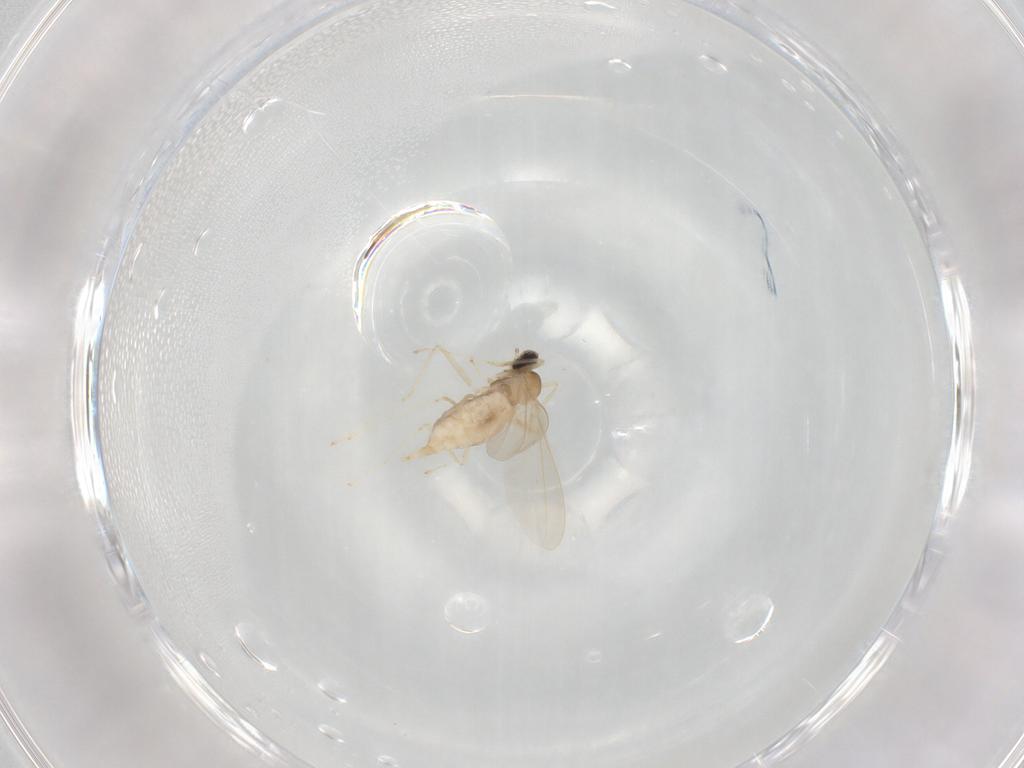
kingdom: Animalia
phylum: Arthropoda
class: Insecta
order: Diptera
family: Cecidomyiidae
